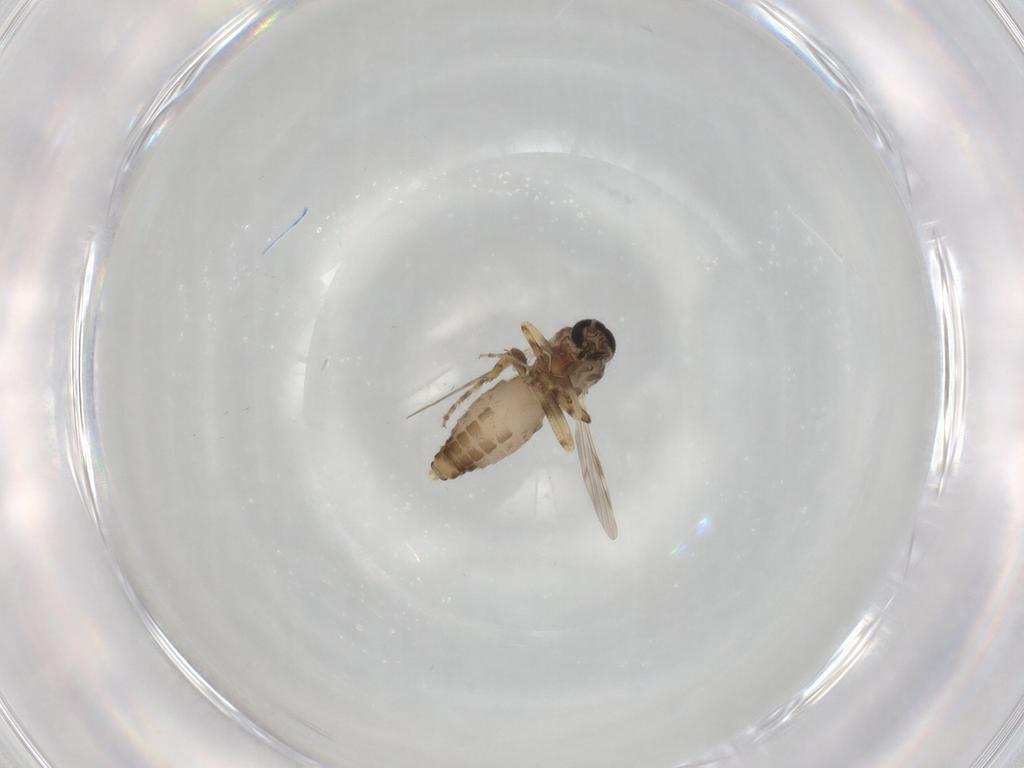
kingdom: Animalia
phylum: Arthropoda
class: Insecta
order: Diptera
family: Ceratopogonidae
